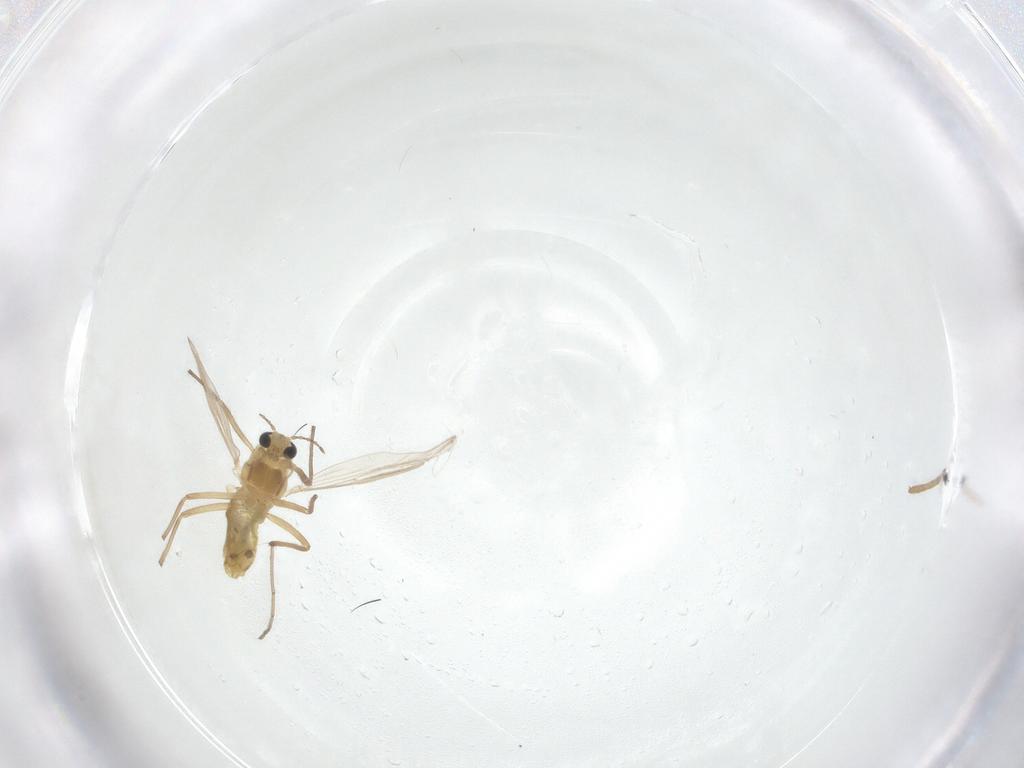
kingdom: Animalia
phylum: Arthropoda
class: Insecta
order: Diptera
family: Chironomidae
